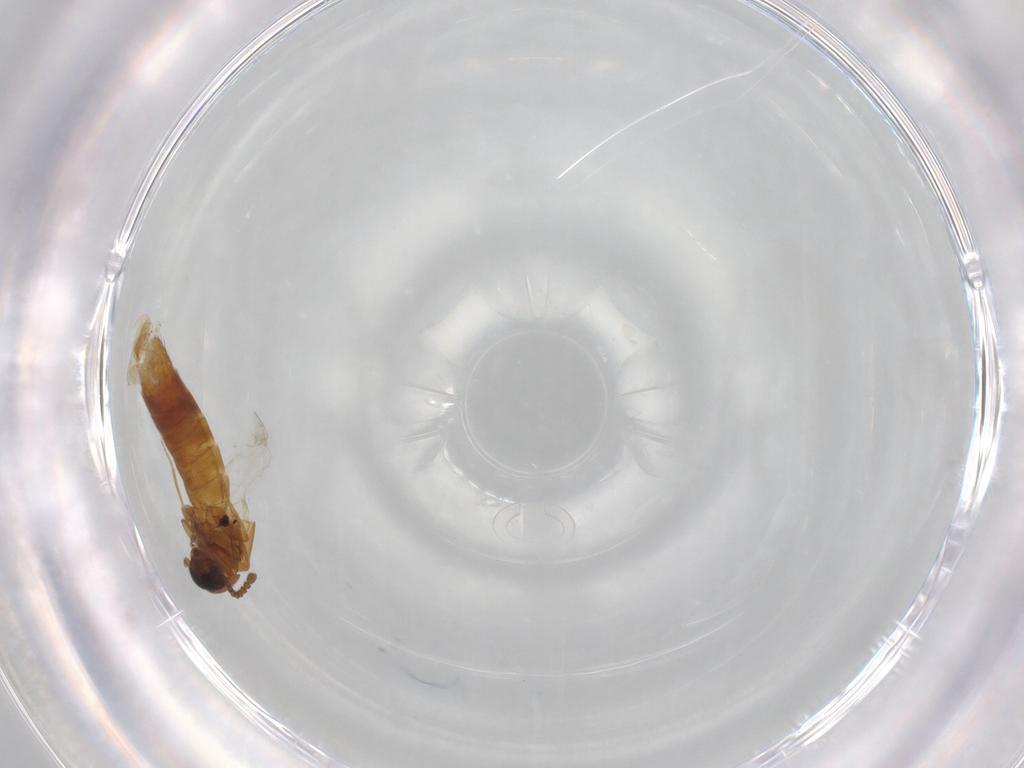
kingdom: Animalia
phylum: Arthropoda
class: Insecta
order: Coleoptera
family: Staphylinidae
